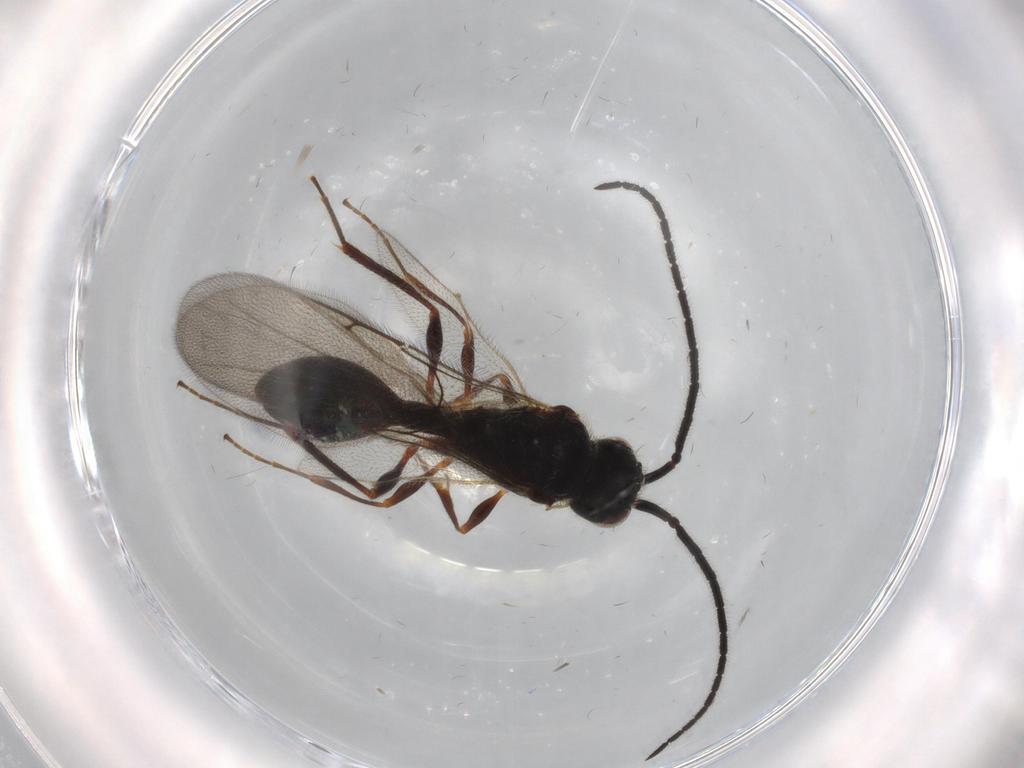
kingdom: Animalia
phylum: Arthropoda
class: Insecta
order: Hymenoptera
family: Diapriidae
